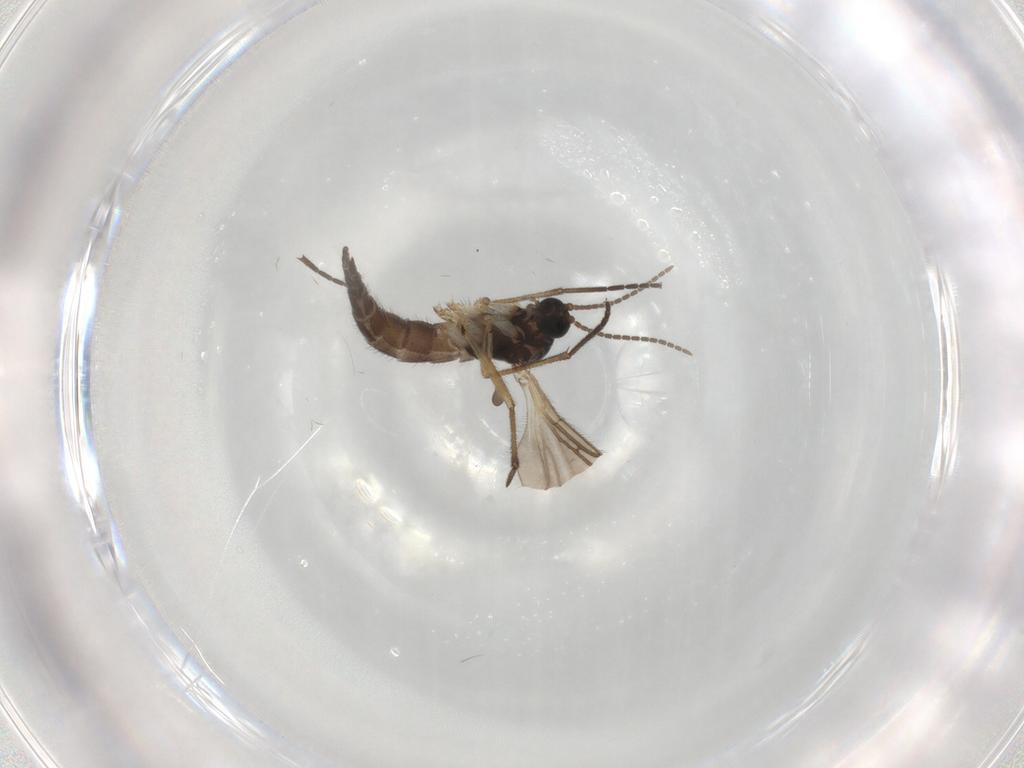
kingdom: Animalia
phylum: Arthropoda
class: Insecta
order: Diptera
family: Sciaridae
